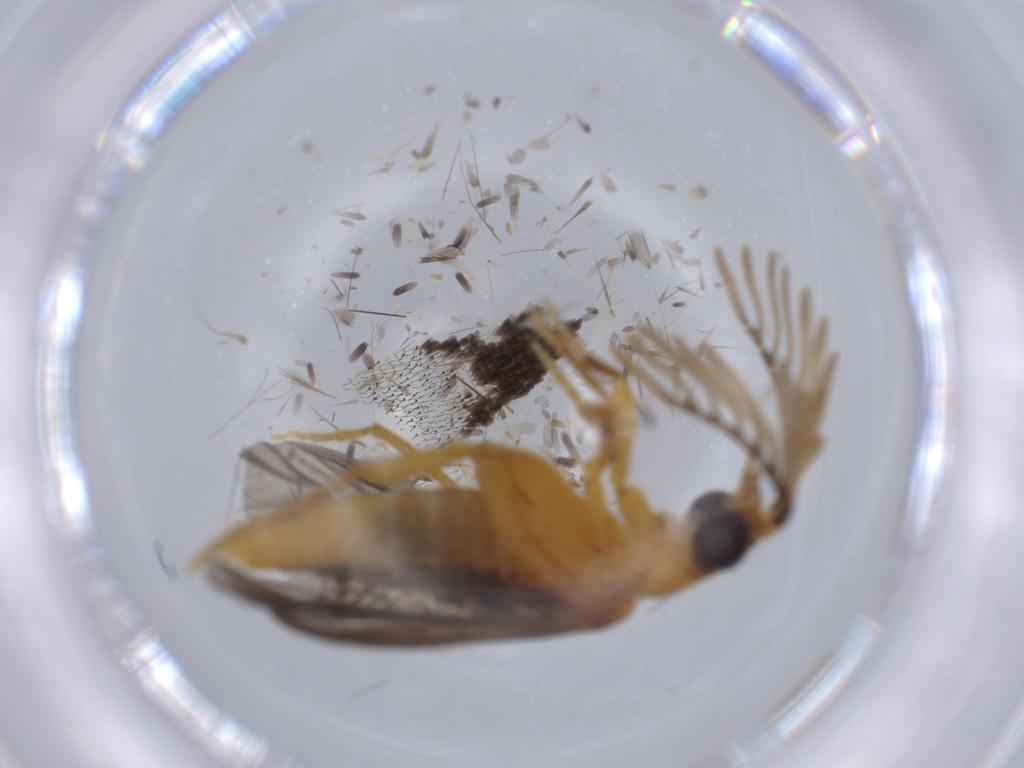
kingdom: Animalia
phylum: Arthropoda
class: Insecta
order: Coleoptera
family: Lampyridae
